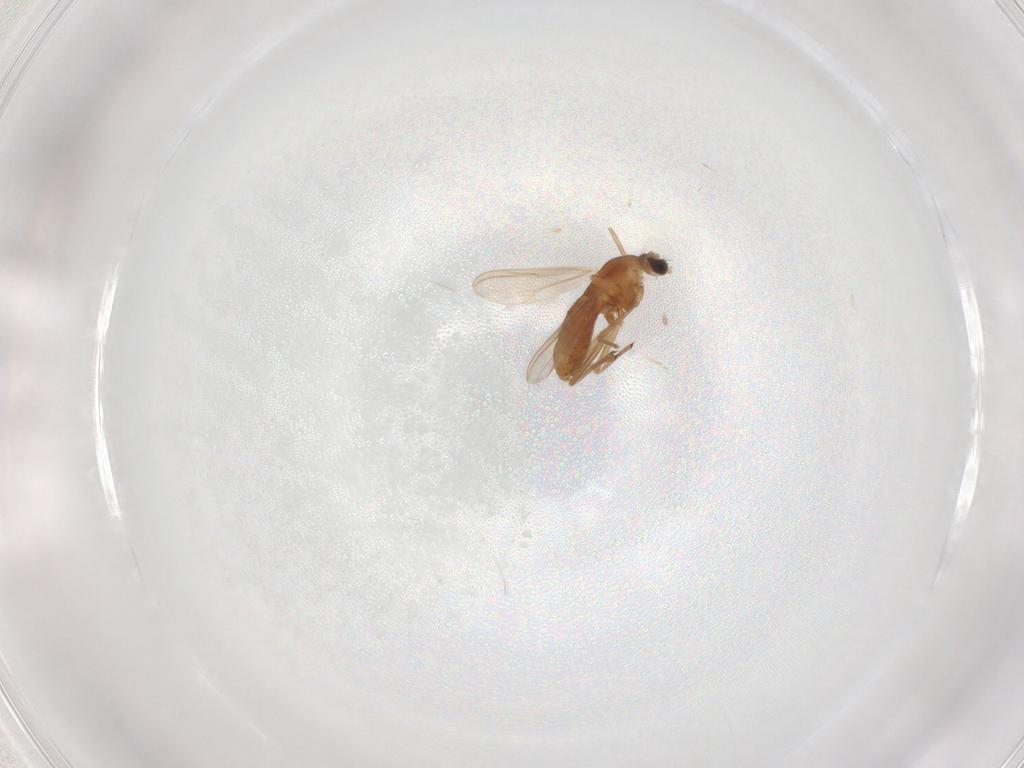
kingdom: Animalia
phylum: Arthropoda
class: Insecta
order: Diptera
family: Chironomidae
